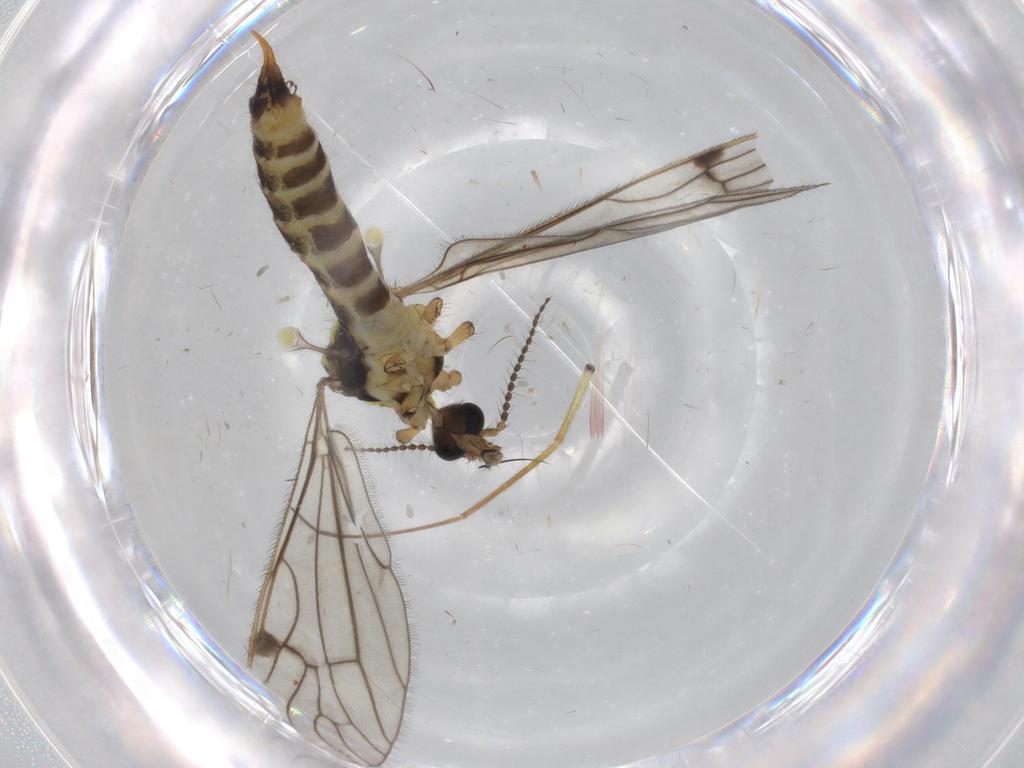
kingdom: Animalia
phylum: Arthropoda
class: Insecta
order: Diptera
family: Limoniidae
